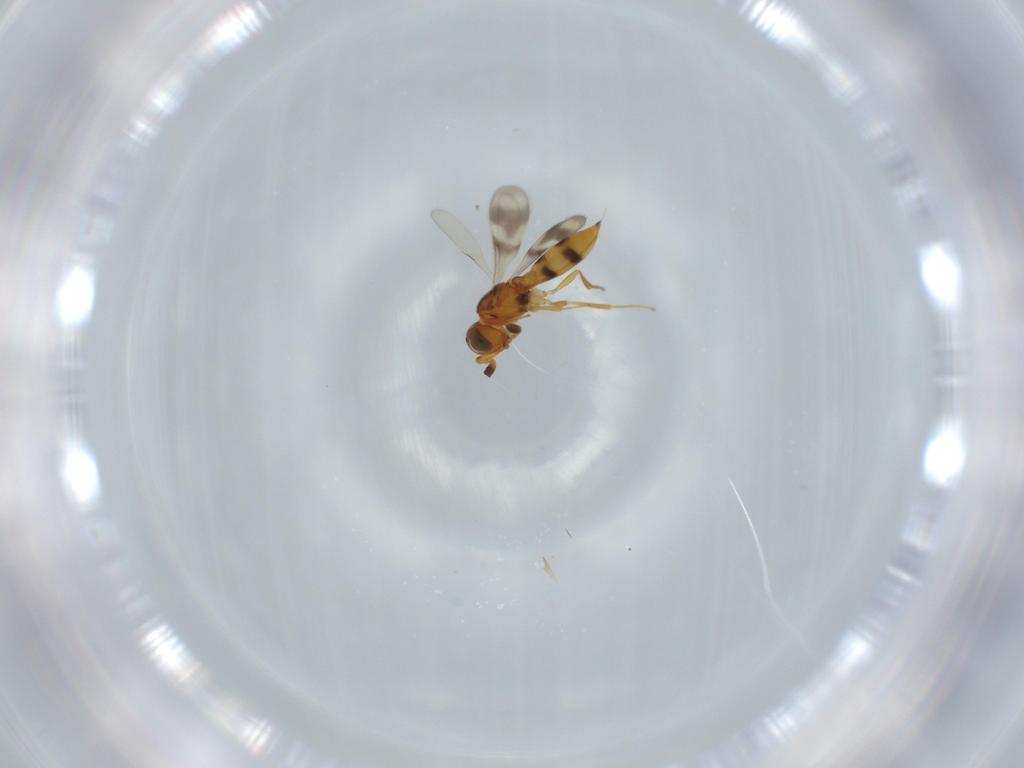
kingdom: Animalia
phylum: Arthropoda
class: Insecta
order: Hymenoptera
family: Scelionidae
